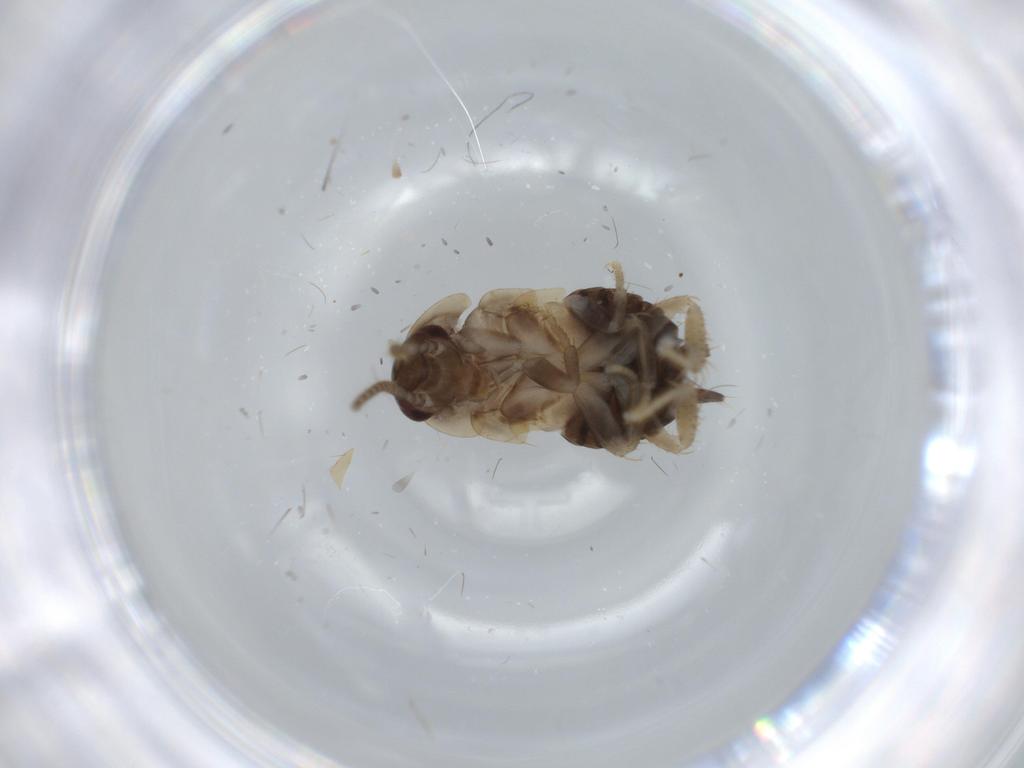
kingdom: Animalia
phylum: Arthropoda
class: Insecta
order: Blattodea
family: Ectobiidae
